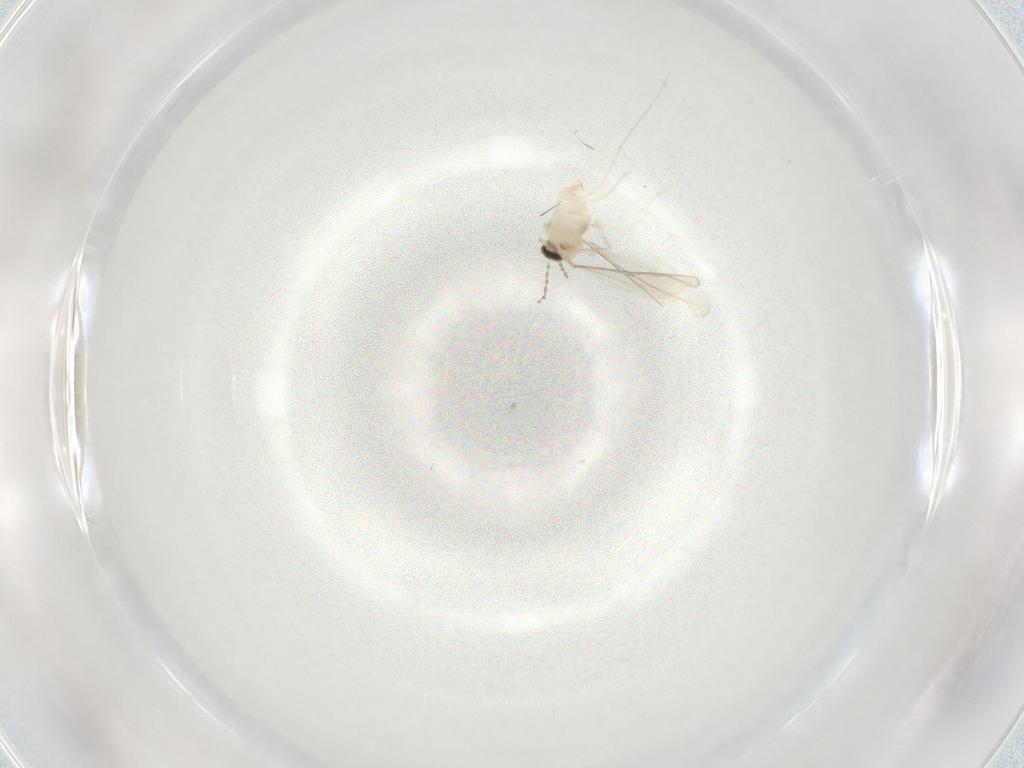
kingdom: Animalia
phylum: Arthropoda
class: Insecta
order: Diptera
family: Cecidomyiidae
